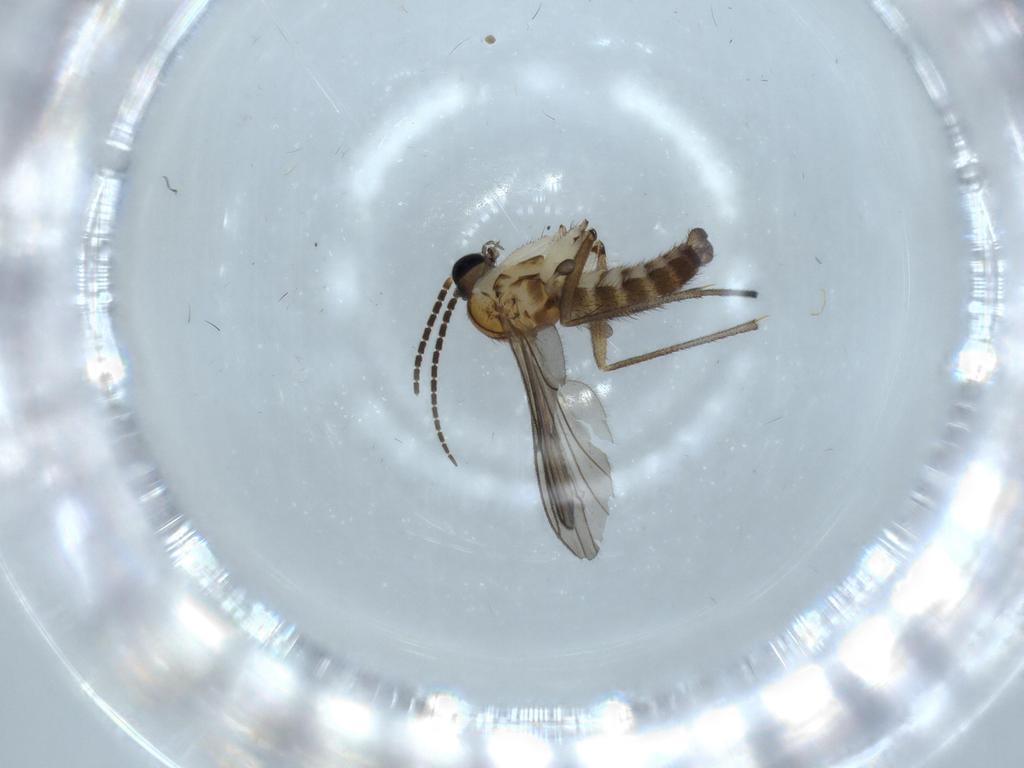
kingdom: Animalia
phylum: Arthropoda
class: Insecta
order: Diptera
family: Sciaridae
